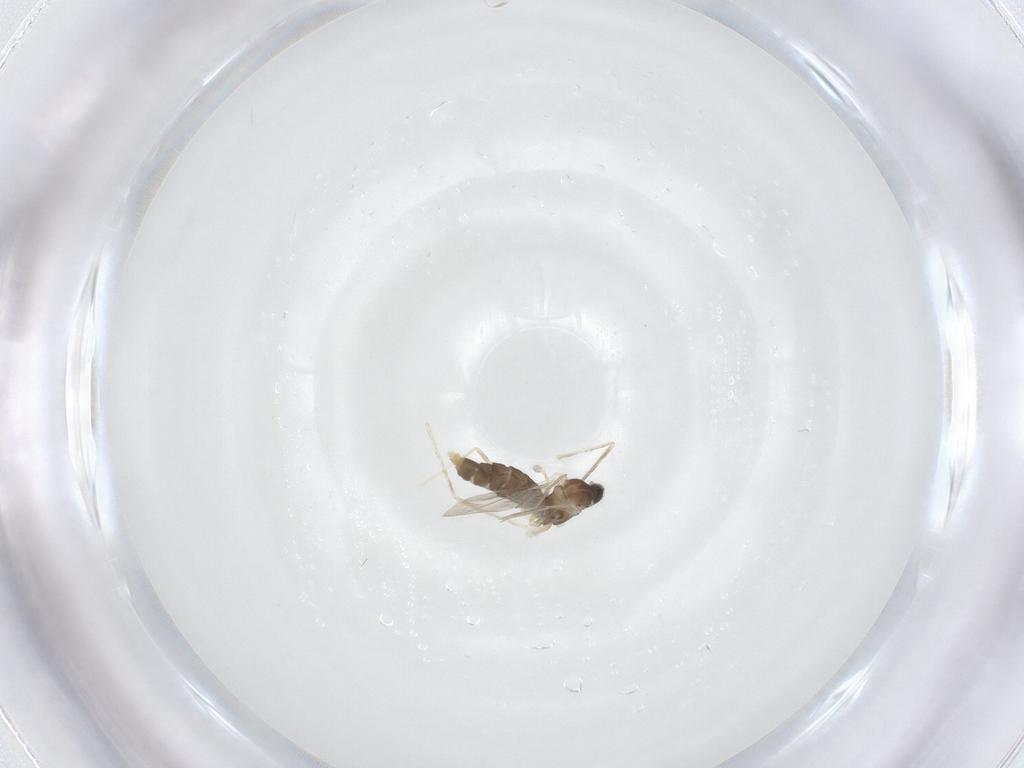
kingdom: Animalia
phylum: Arthropoda
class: Insecta
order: Diptera
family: Cecidomyiidae
